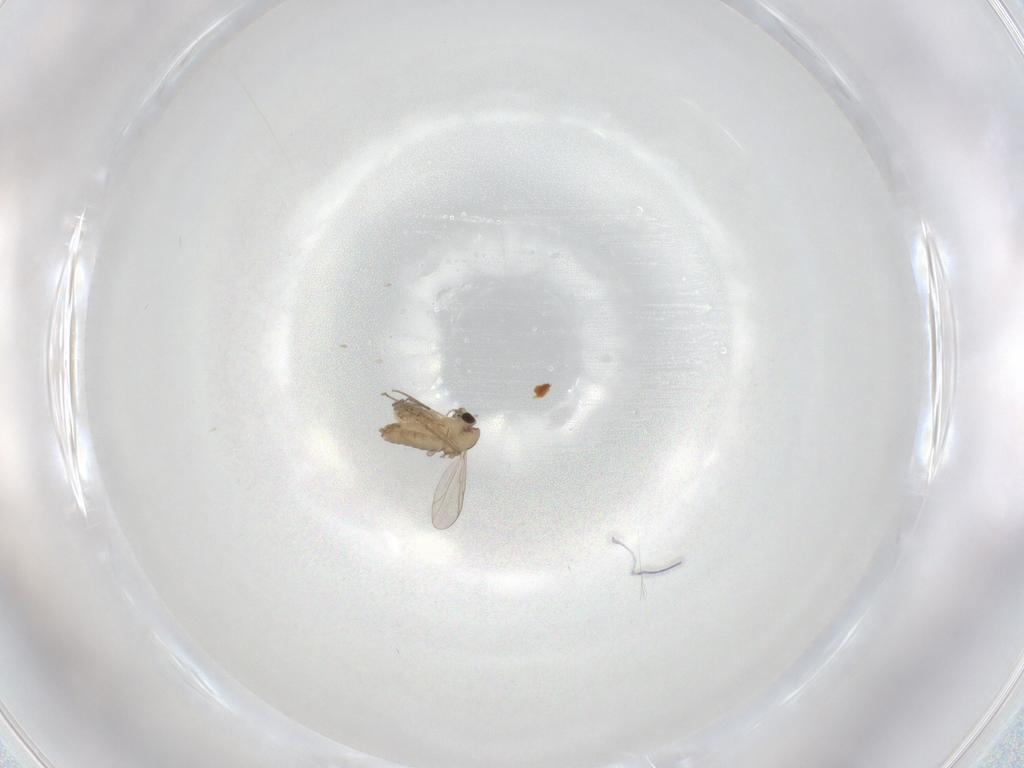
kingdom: Animalia
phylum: Arthropoda
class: Insecta
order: Diptera
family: Chironomidae
